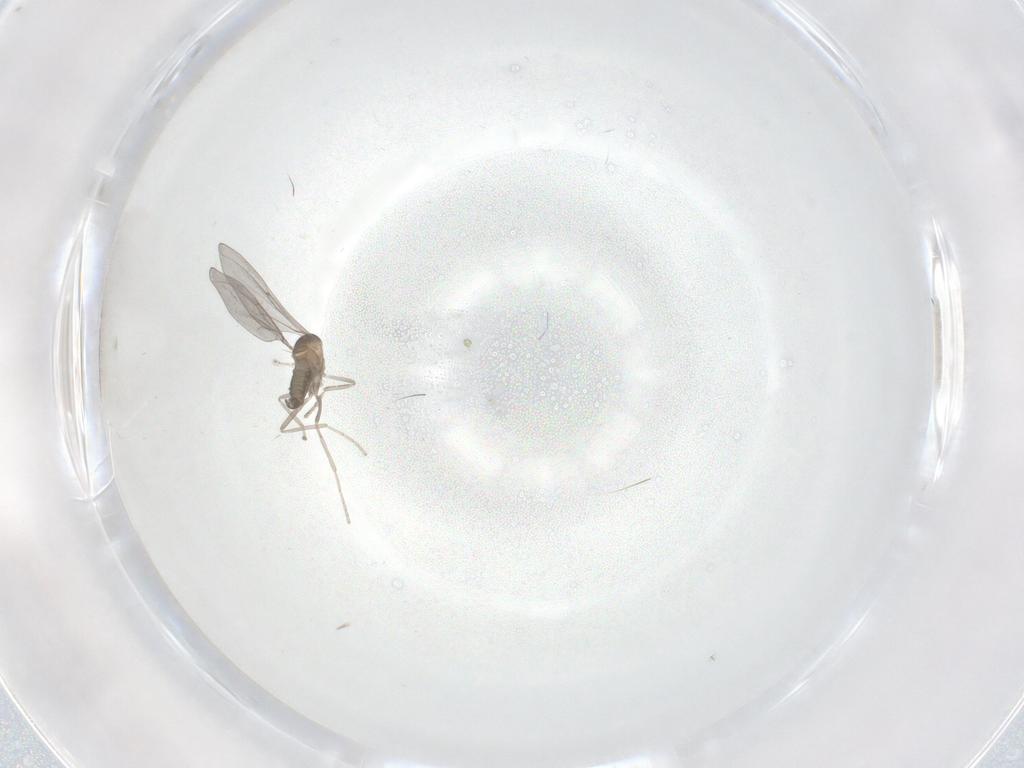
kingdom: Animalia
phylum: Arthropoda
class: Insecta
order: Diptera
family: Cecidomyiidae
